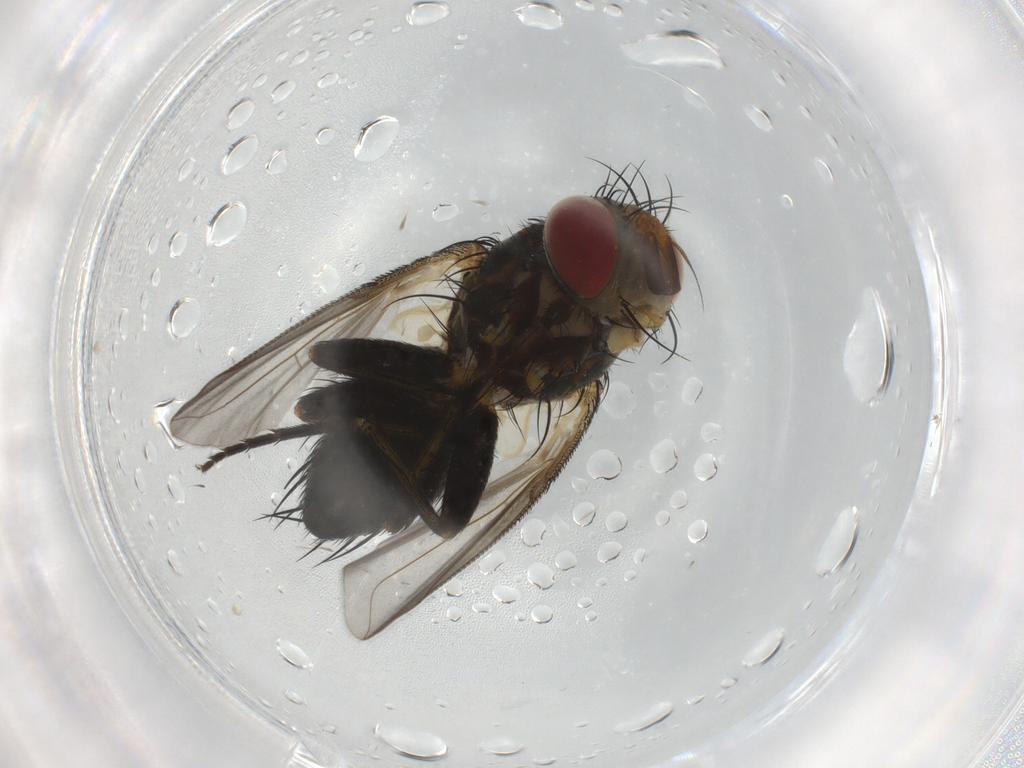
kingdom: Animalia
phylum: Arthropoda
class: Insecta
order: Diptera
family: Tachinidae
